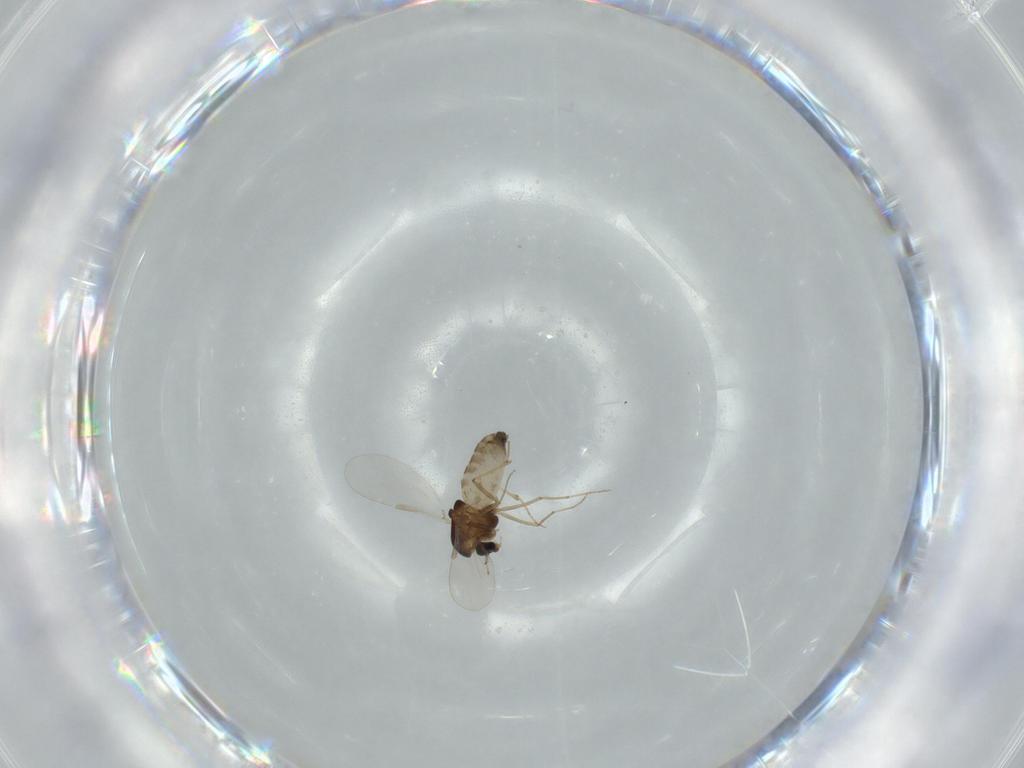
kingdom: Animalia
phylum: Arthropoda
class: Insecta
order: Diptera
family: Chironomidae
